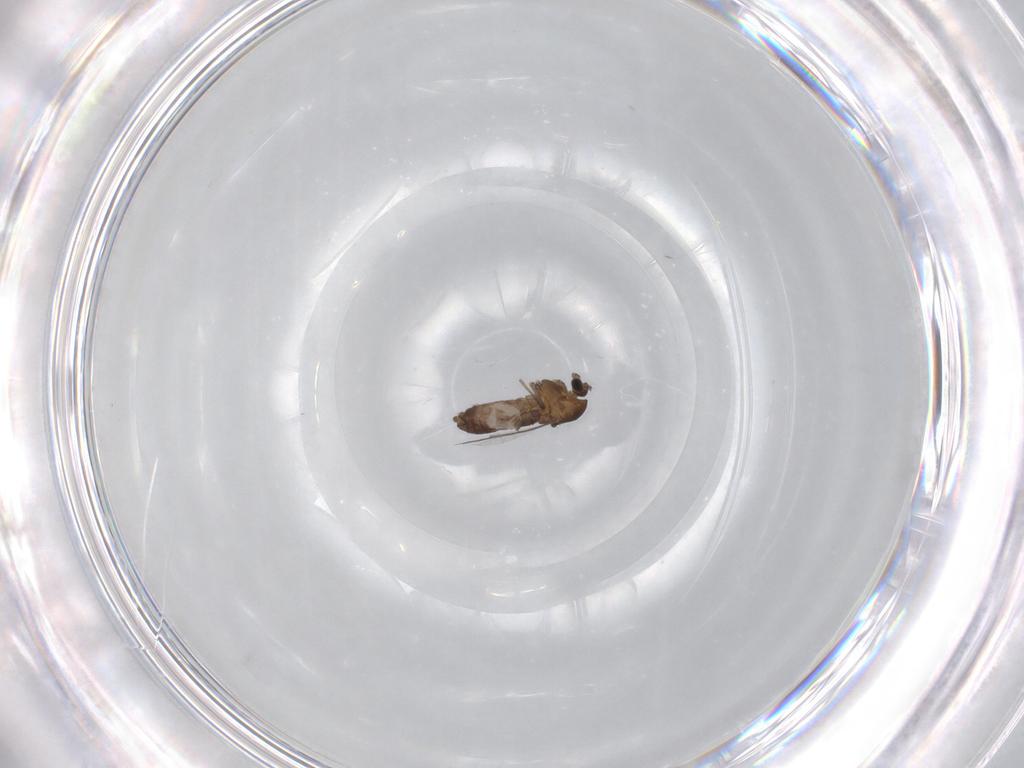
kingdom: Animalia
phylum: Arthropoda
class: Insecta
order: Diptera
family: Chironomidae
